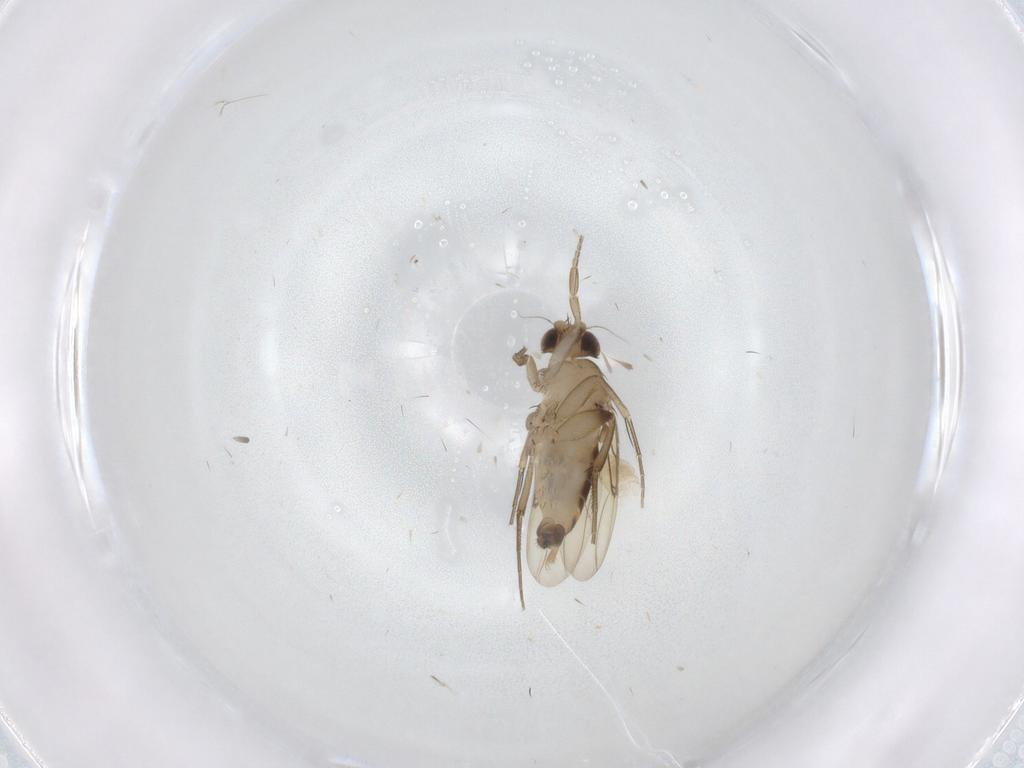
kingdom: Animalia
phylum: Arthropoda
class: Insecta
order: Diptera
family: Phoridae
